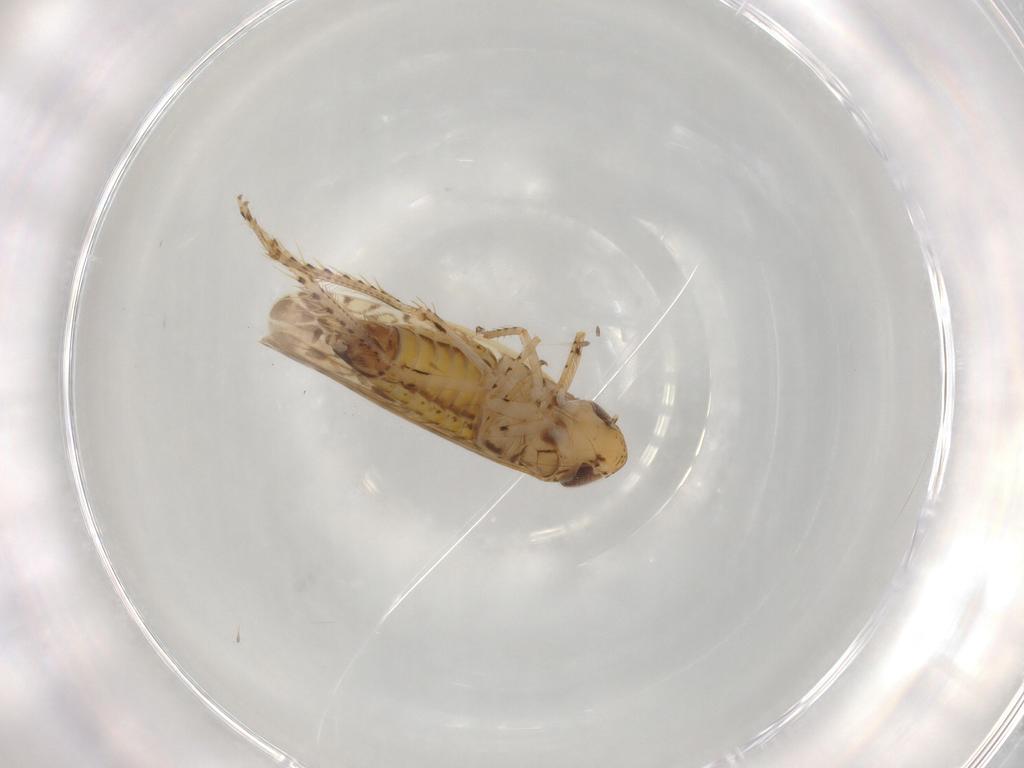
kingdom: Animalia
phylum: Arthropoda
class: Insecta
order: Hemiptera
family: Cicadellidae
